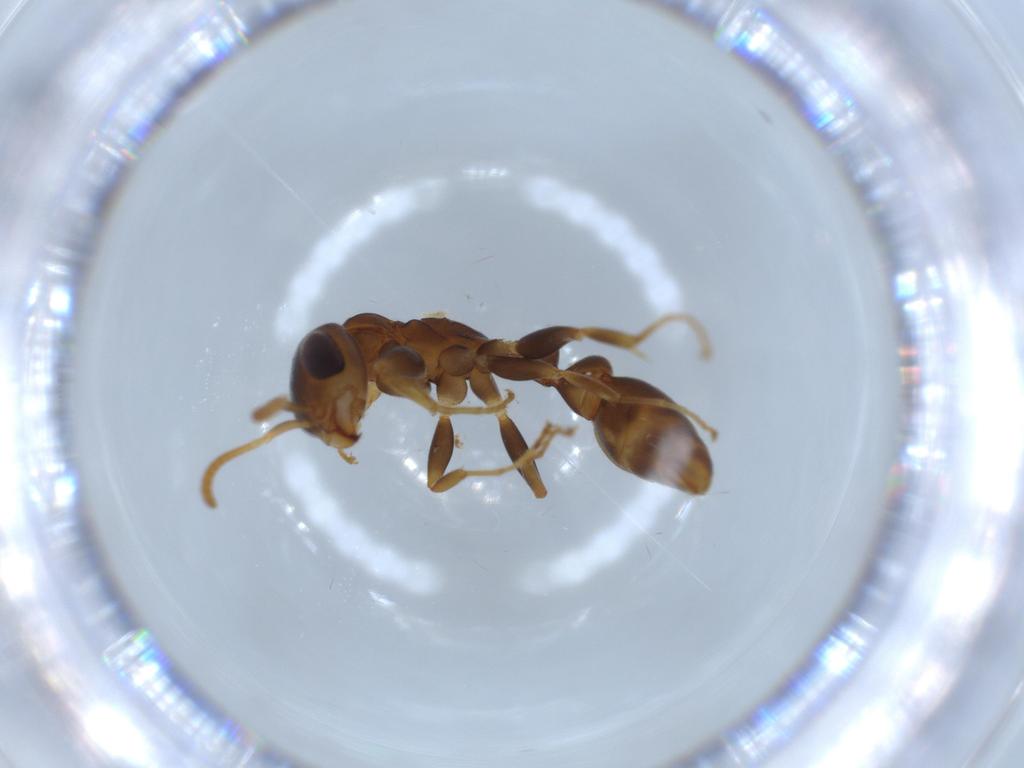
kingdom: Animalia
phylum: Arthropoda
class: Insecta
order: Hymenoptera
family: Formicidae
